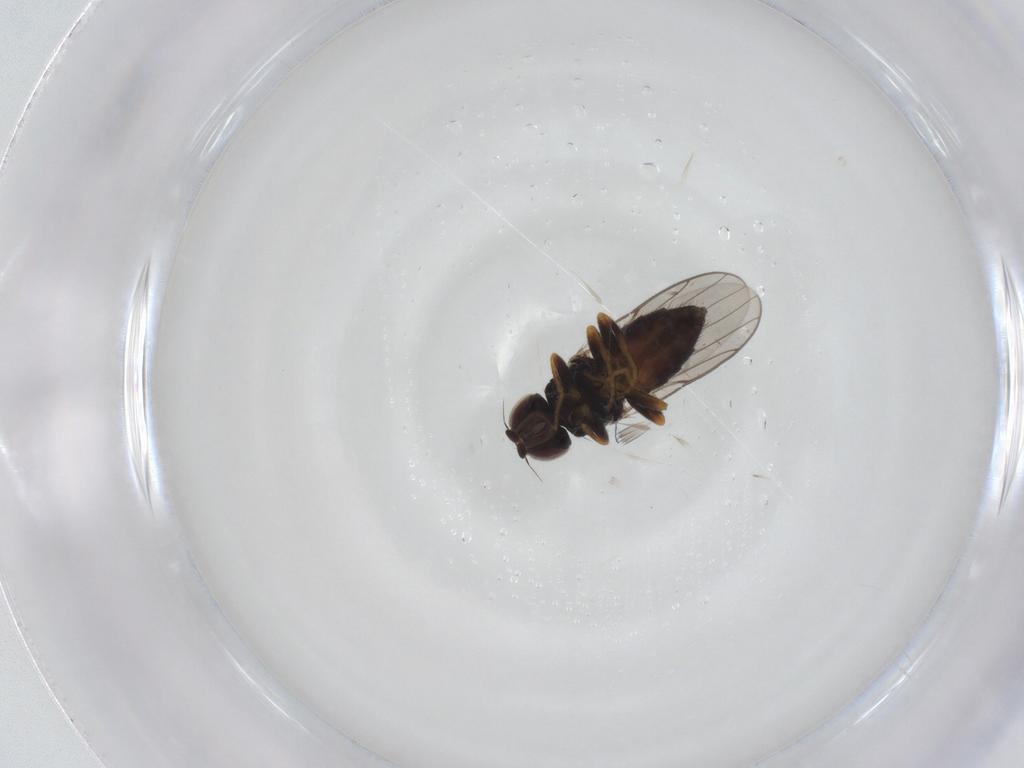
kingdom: Animalia
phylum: Arthropoda
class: Insecta
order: Diptera
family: Chloropidae
